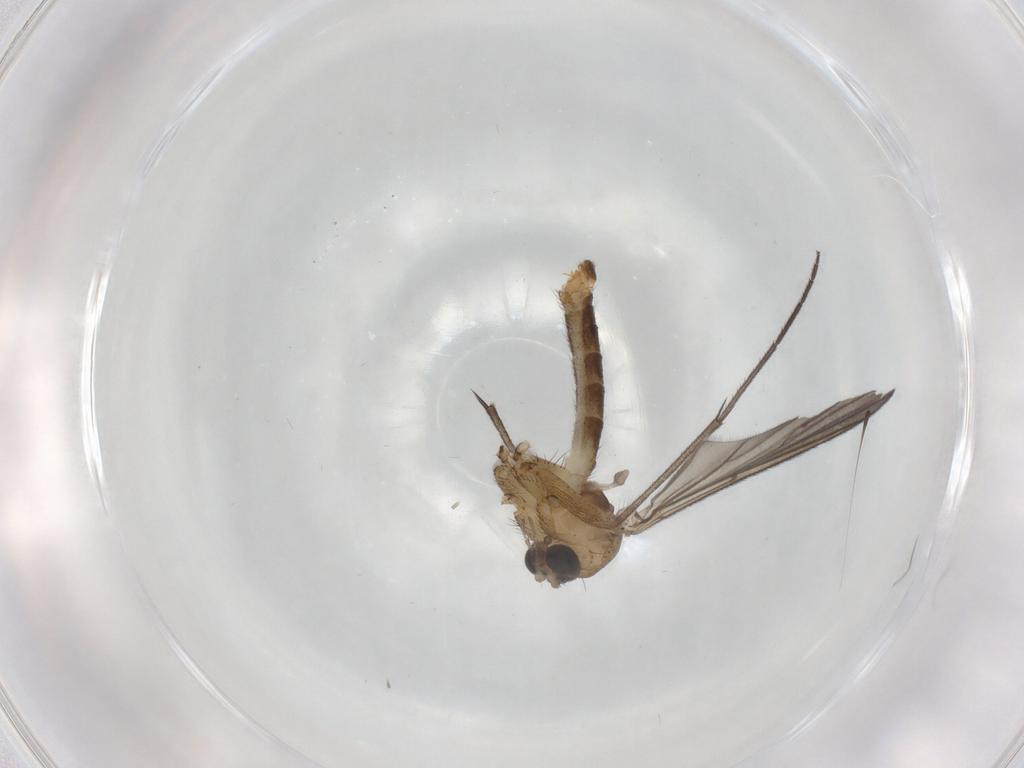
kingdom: Animalia
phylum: Arthropoda
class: Insecta
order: Diptera
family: Mycetophilidae
